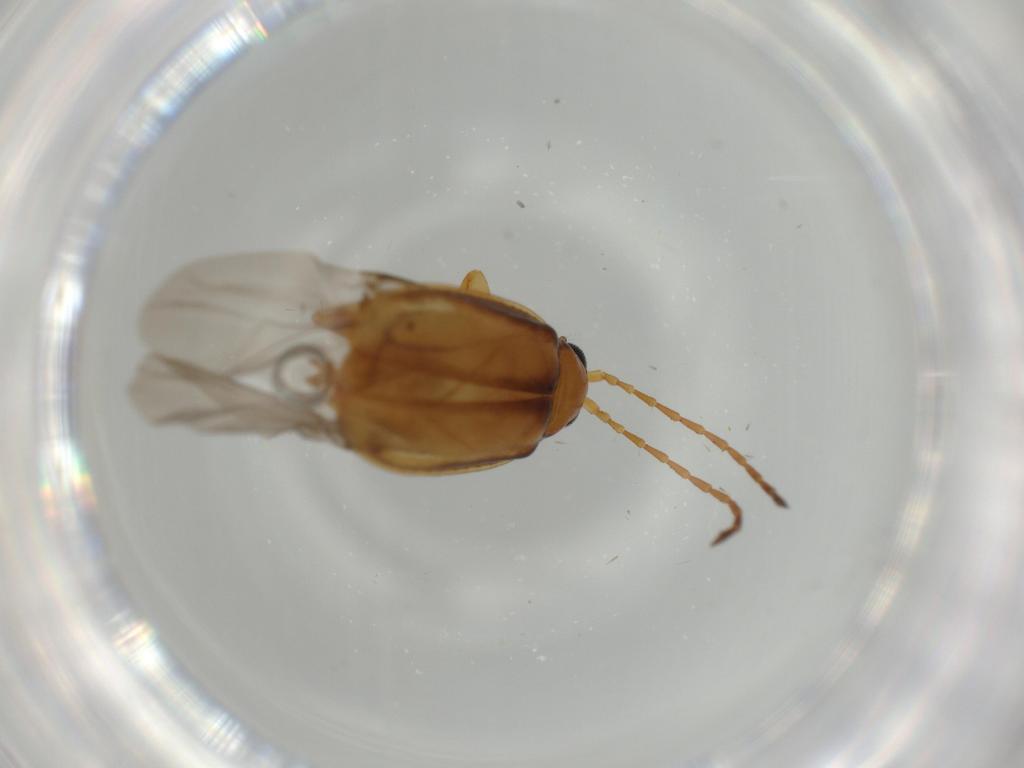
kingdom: Animalia
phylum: Arthropoda
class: Insecta
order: Coleoptera
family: Chrysomelidae
